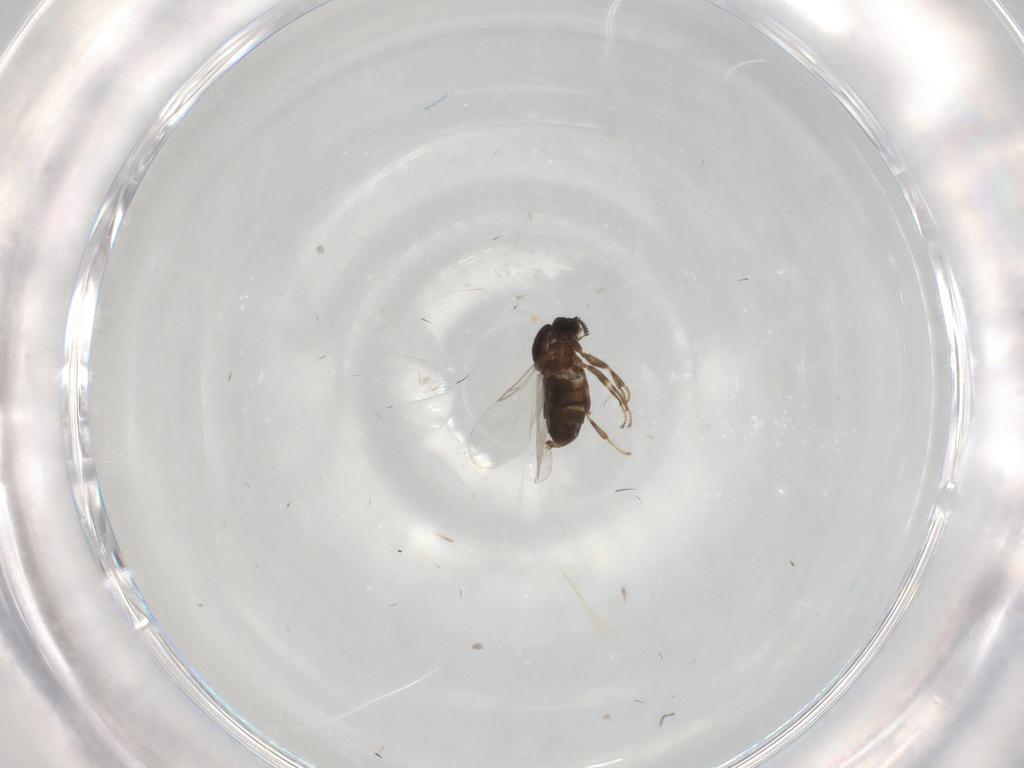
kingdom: Animalia
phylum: Arthropoda
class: Insecta
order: Diptera
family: Scatopsidae
